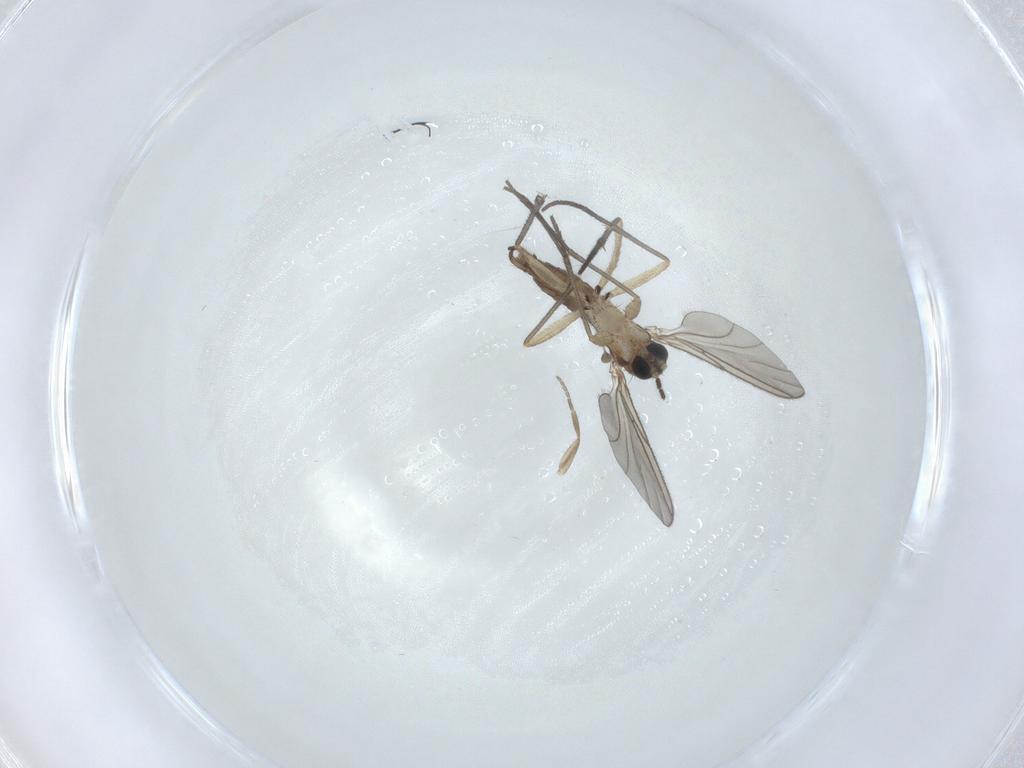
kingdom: Animalia
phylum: Arthropoda
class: Insecta
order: Diptera
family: Sciaridae
